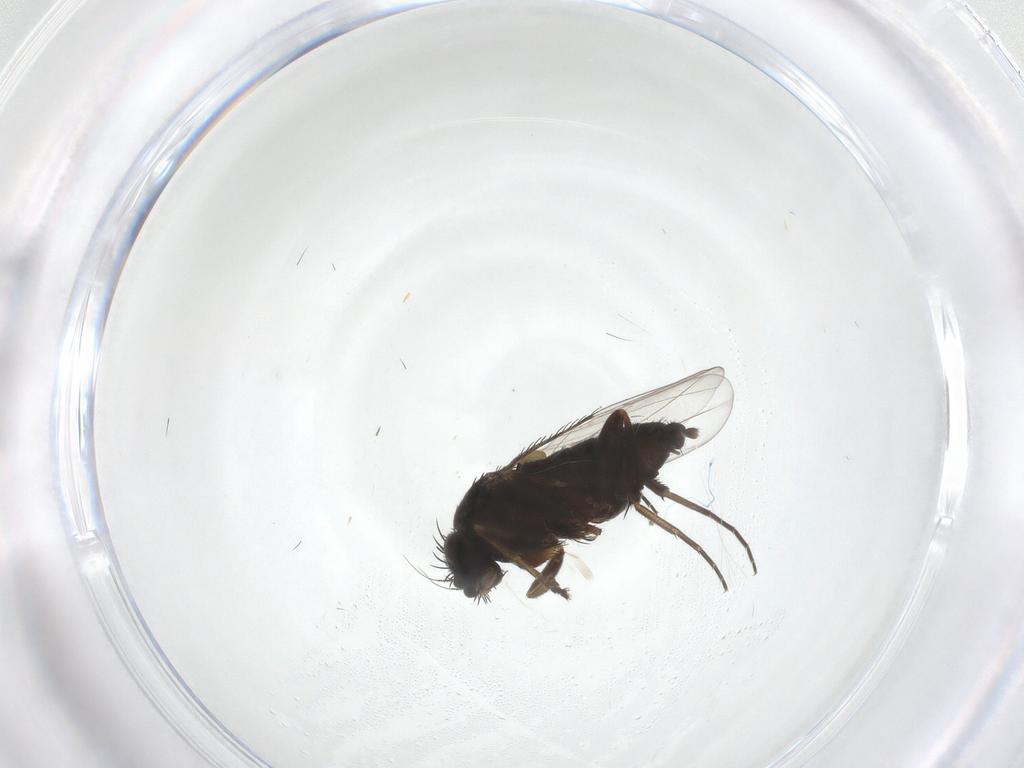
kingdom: Animalia
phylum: Arthropoda
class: Insecta
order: Diptera
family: Phoridae
